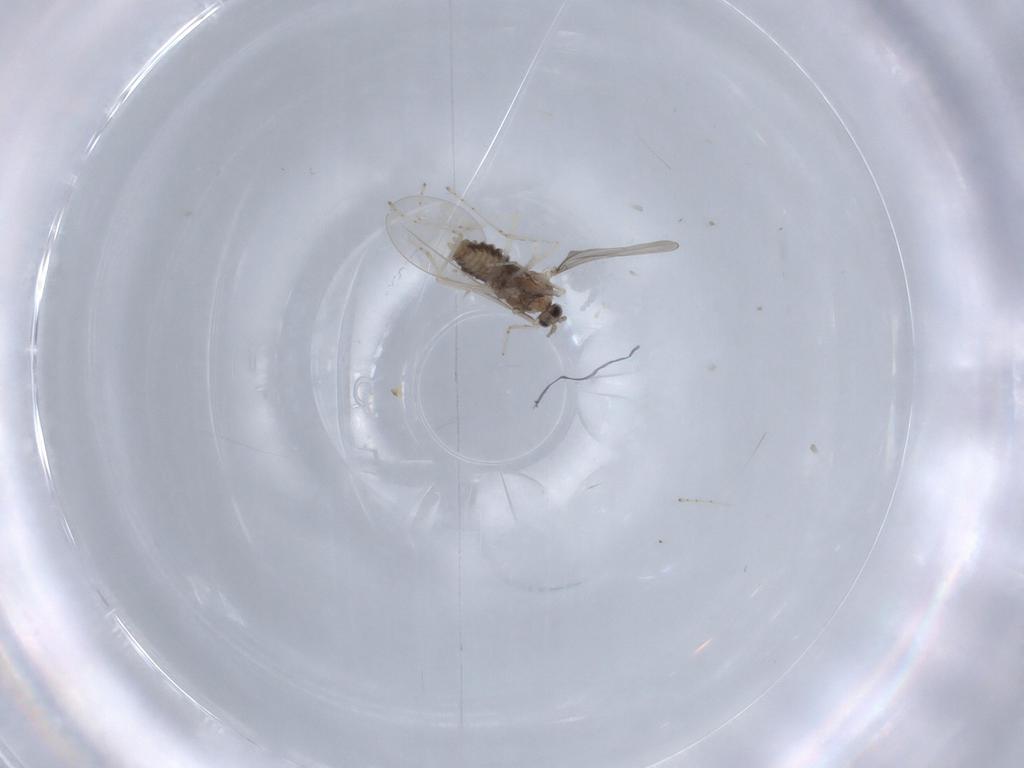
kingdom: Animalia
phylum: Arthropoda
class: Insecta
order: Diptera
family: Cecidomyiidae
